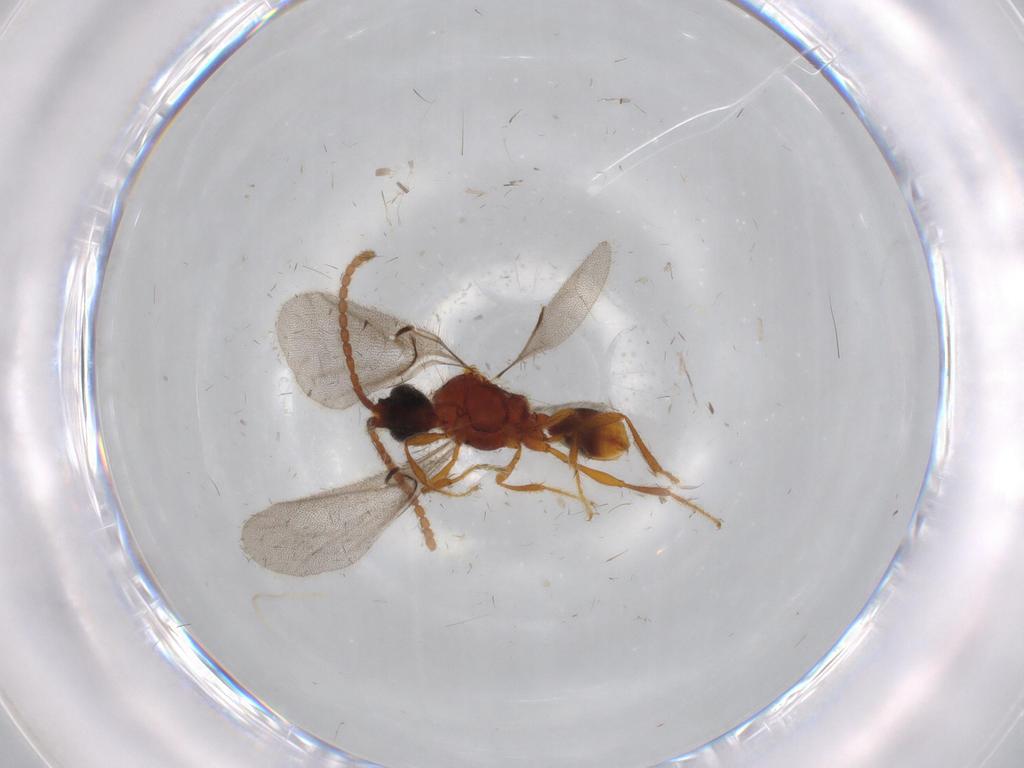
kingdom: Animalia
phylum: Arthropoda
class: Insecta
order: Hymenoptera
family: Diapriidae
